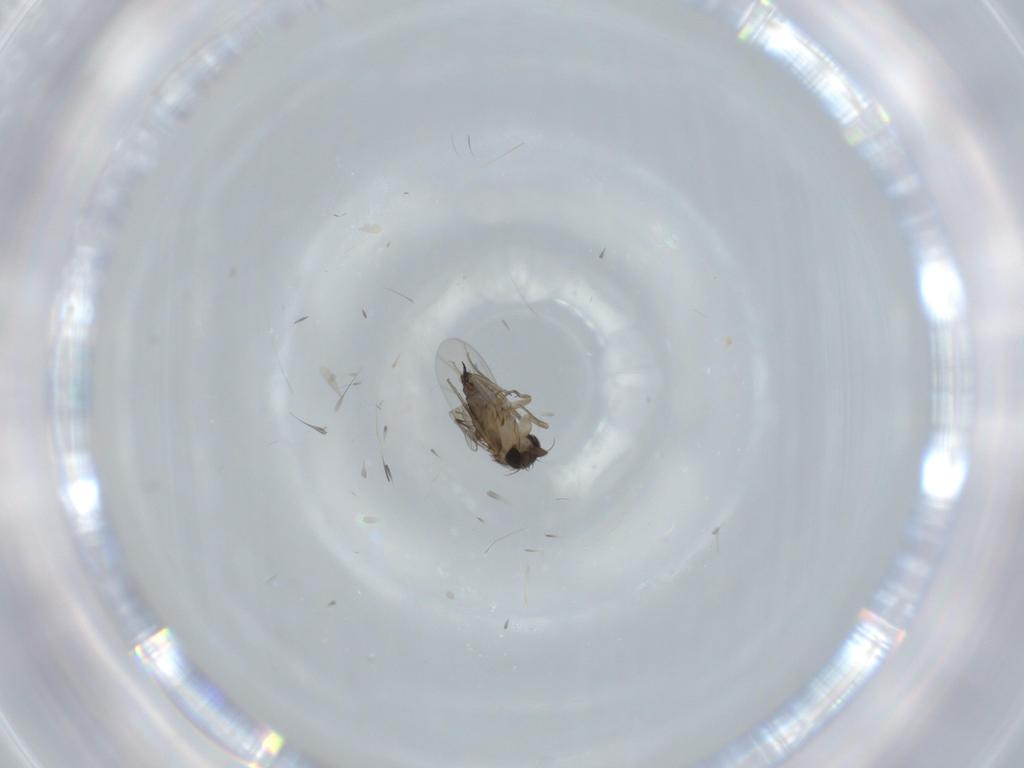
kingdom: Animalia
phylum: Arthropoda
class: Insecta
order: Diptera
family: Phoridae
